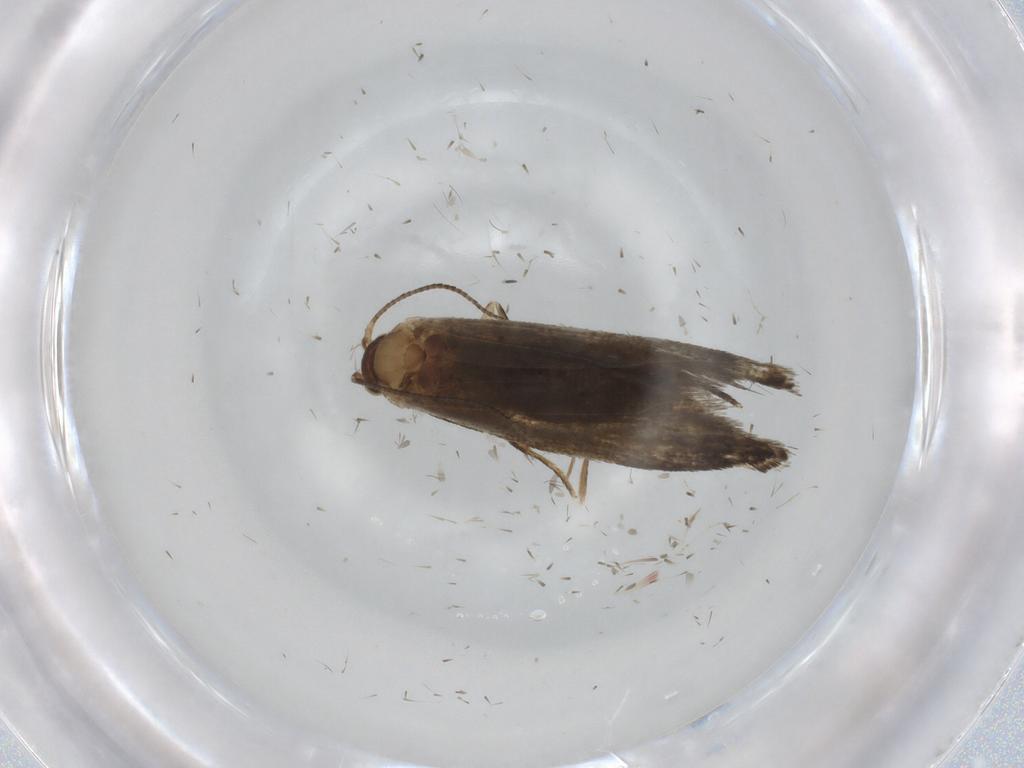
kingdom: Animalia
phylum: Arthropoda
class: Insecta
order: Lepidoptera
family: Tineidae
